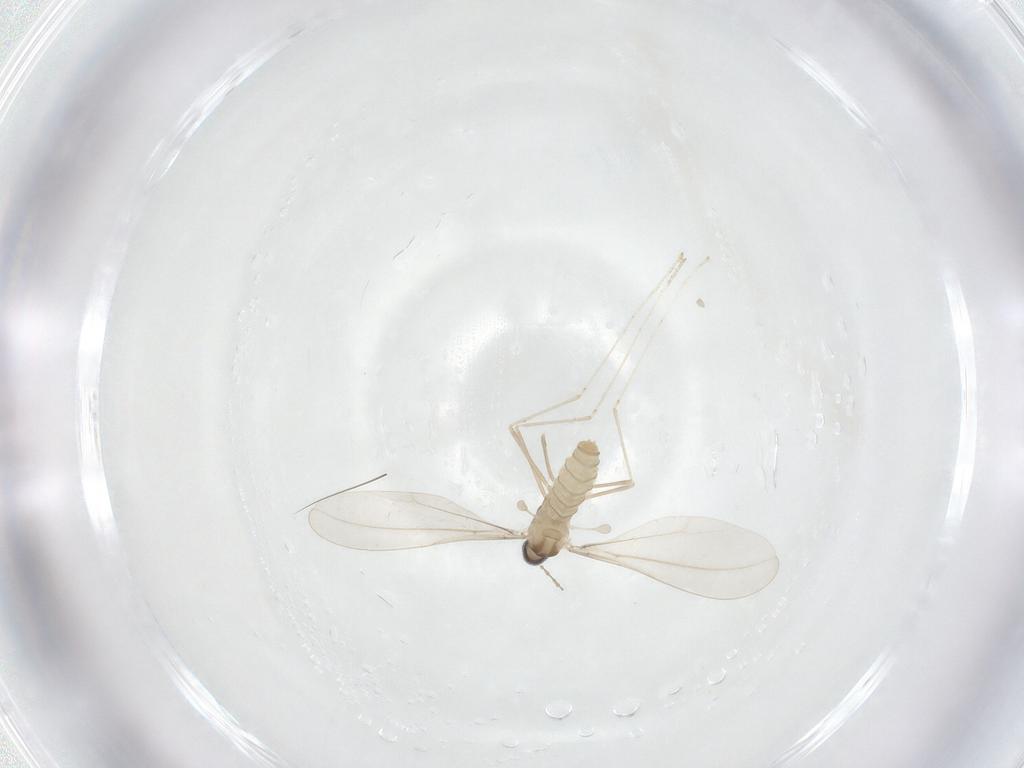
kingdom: Animalia
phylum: Arthropoda
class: Insecta
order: Diptera
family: Cecidomyiidae
